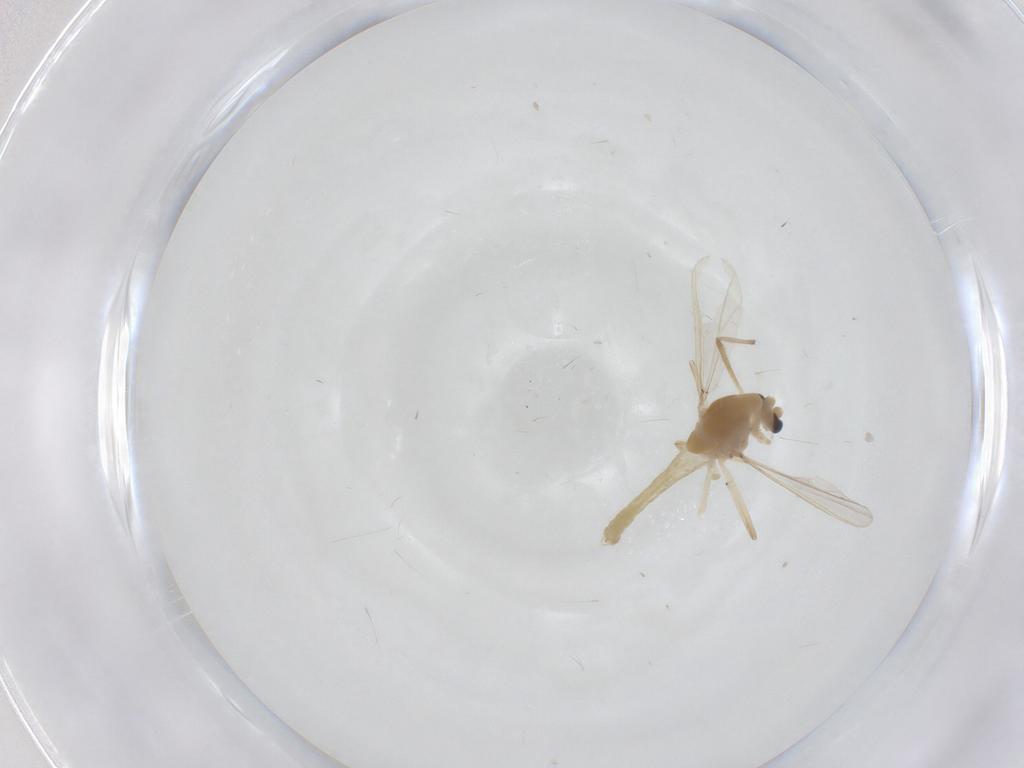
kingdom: Animalia
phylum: Arthropoda
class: Insecta
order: Diptera
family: Chironomidae
